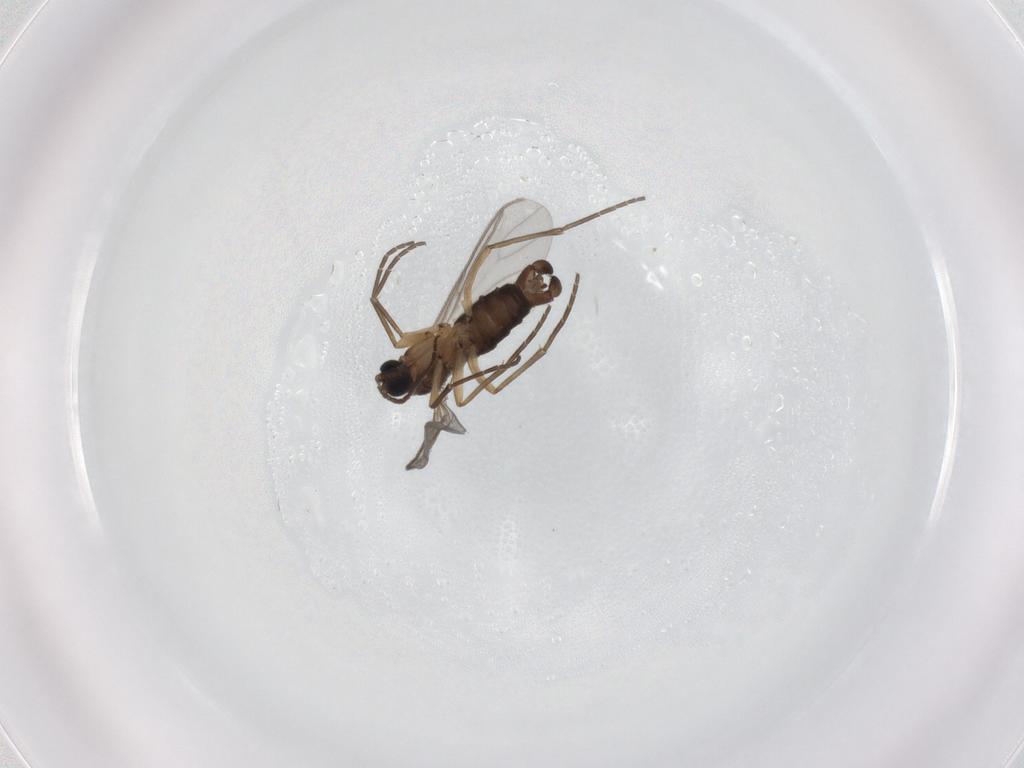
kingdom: Animalia
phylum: Arthropoda
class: Insecta
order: Diptera
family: Sciaridae
